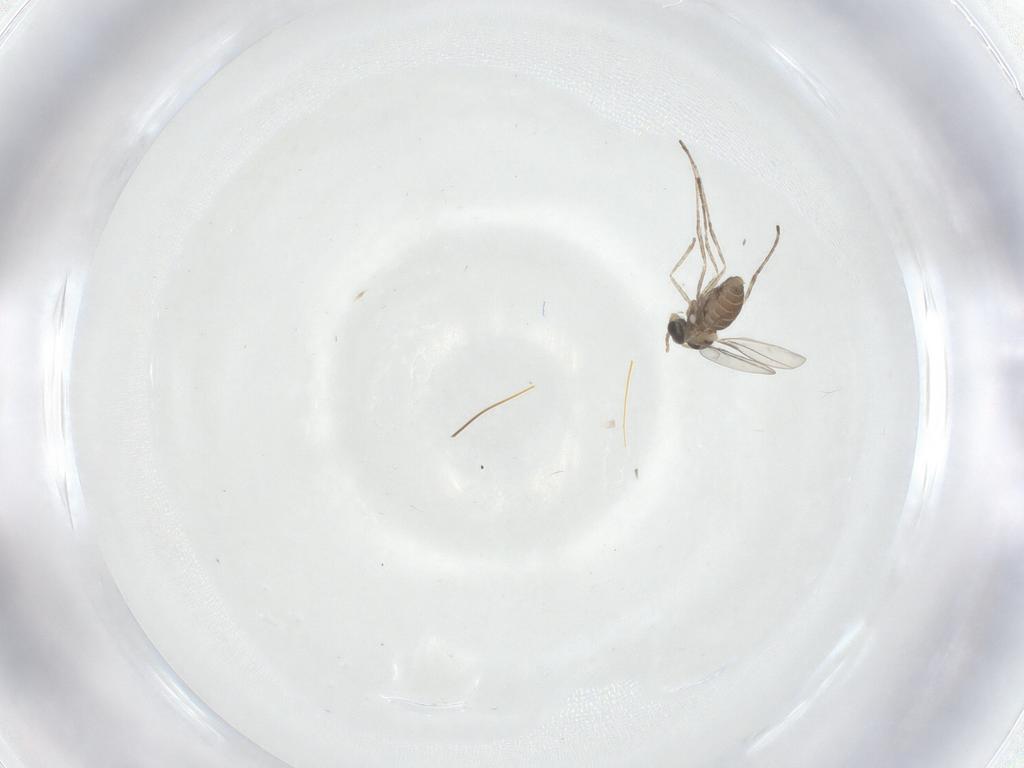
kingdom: Animalia
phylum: Arthropoda
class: Insecta
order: Diptera
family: Cecidomyiidae
